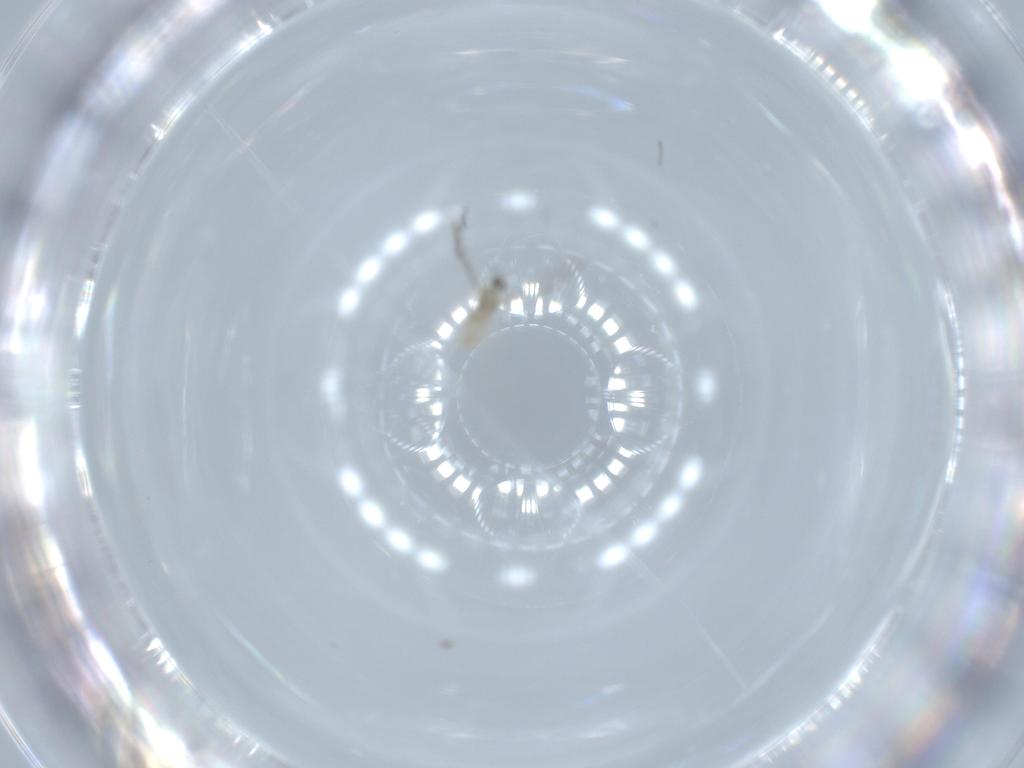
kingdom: Animalia
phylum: Arthropoda
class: Insecta
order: Diptera
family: Cecidomyiidae
